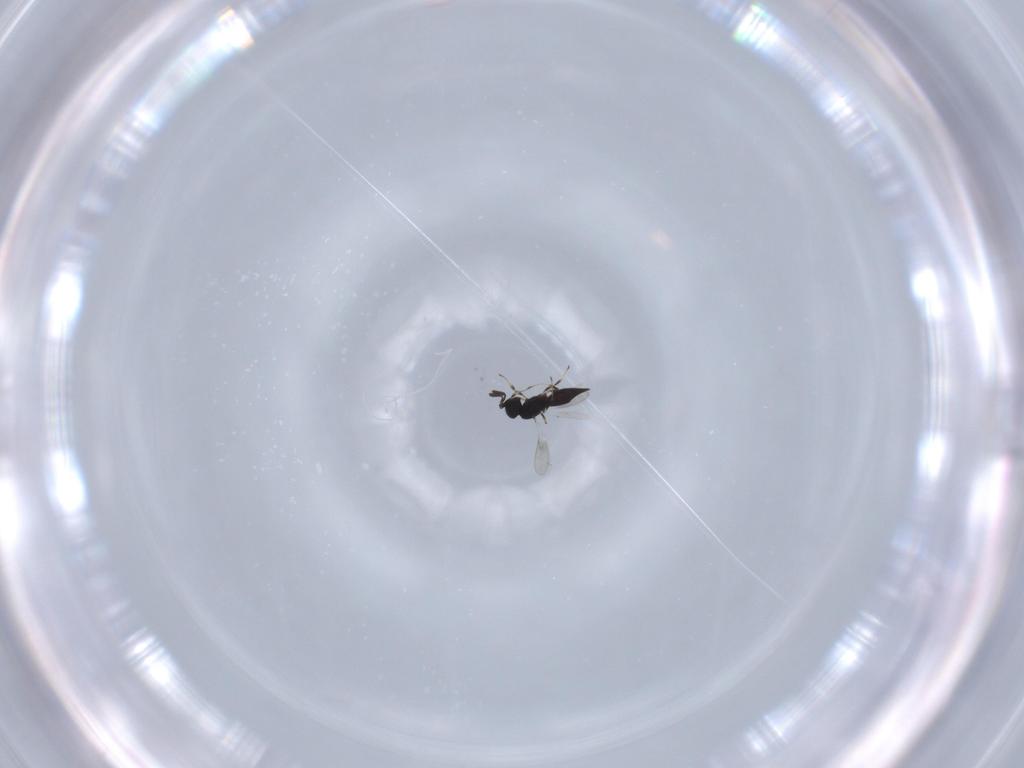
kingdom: Animalia
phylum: Arthropoda
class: Insecta
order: Hymenoptera
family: Scelionidae
